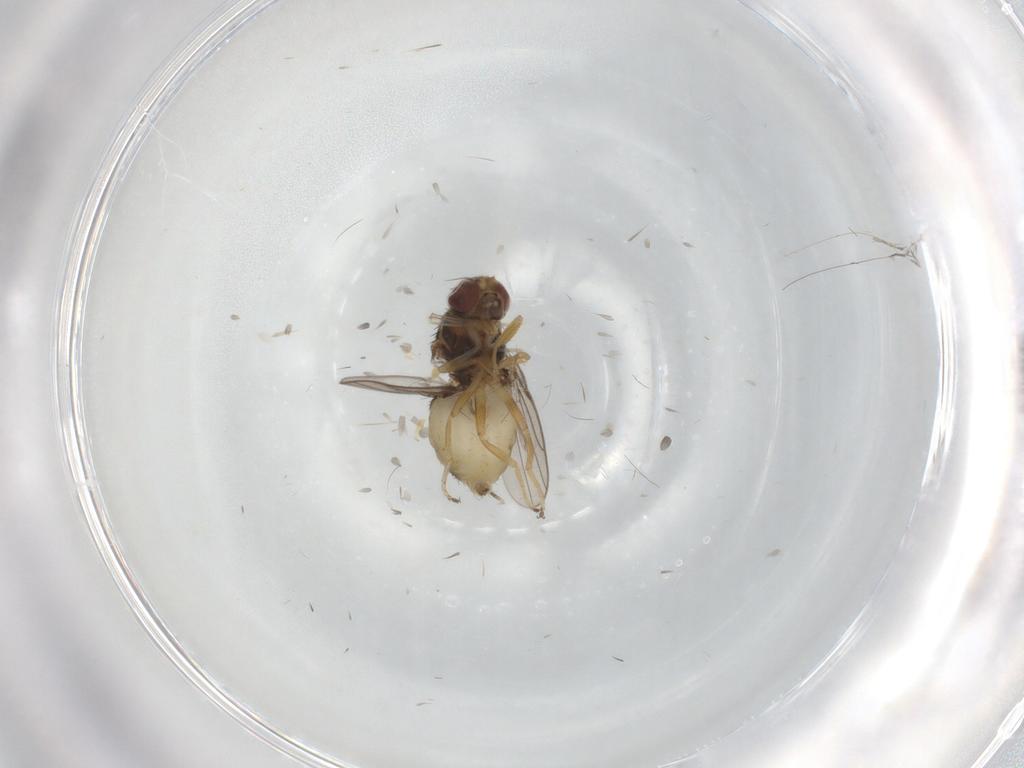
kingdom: Animalia
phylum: Arthropoda
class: Insecta
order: Diptera
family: Chloropidae
